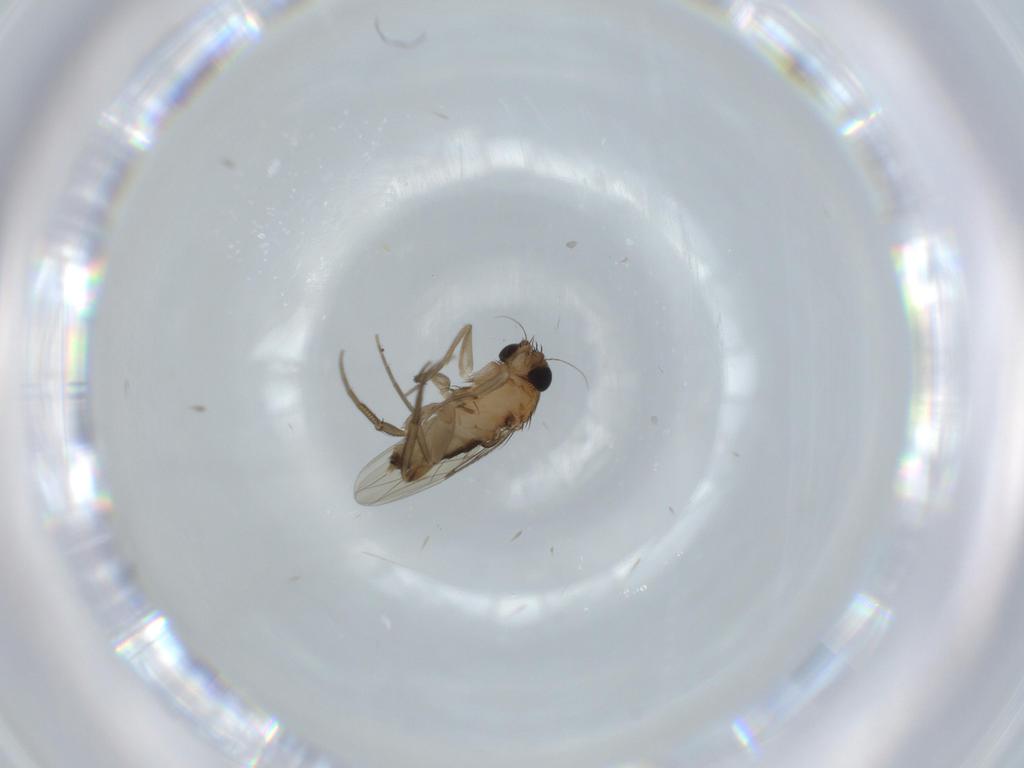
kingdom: Animalia
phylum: Arthropoda
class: Insecta
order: Diptera
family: Phoridae
